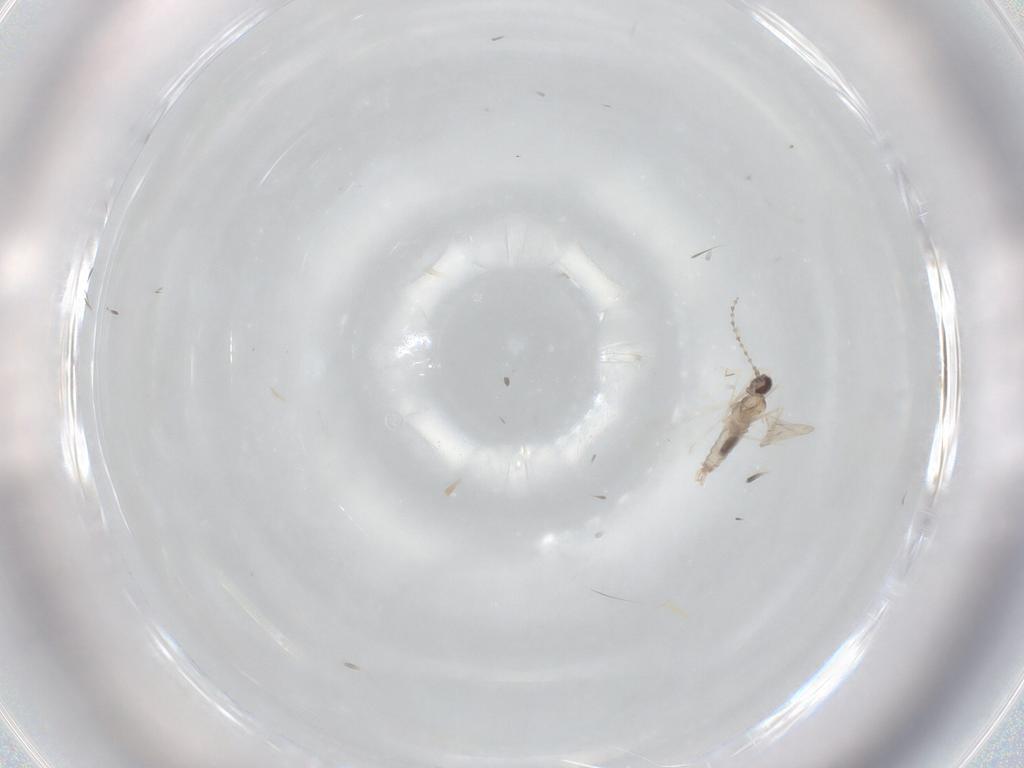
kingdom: Animalia
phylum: Arthropoda
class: Insecta
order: Diptera
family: Cecidomyiidae
